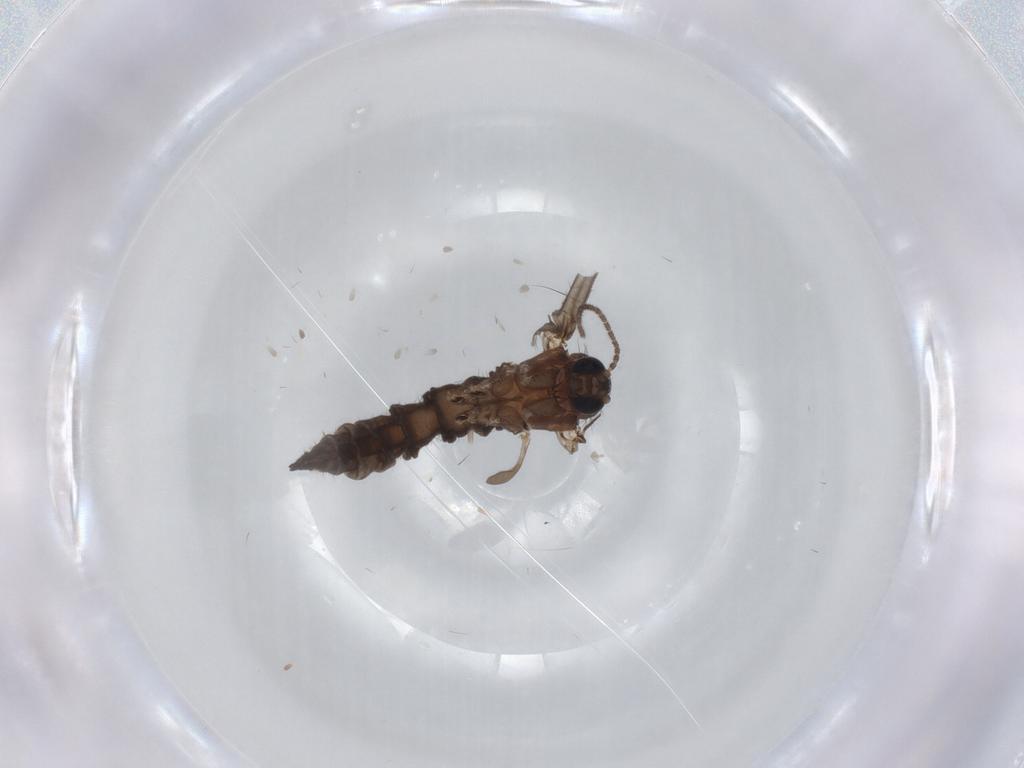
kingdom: Animalia
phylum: Arthropoda
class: Insecta
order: Diptera
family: Sciaridae
